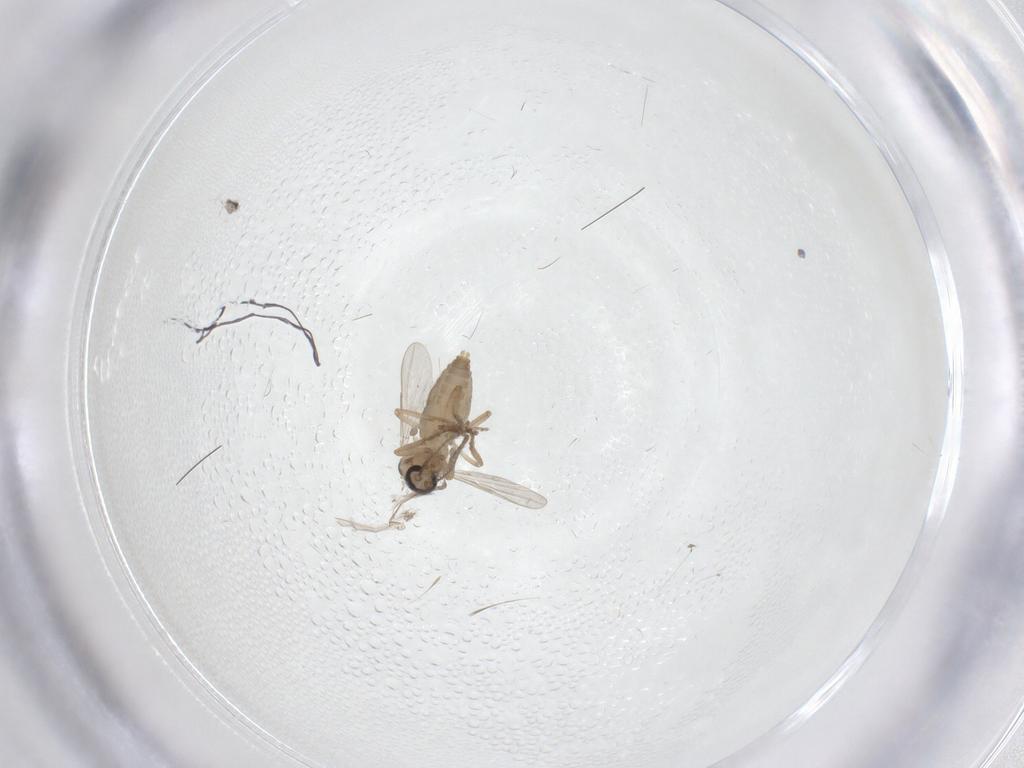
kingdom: Animalia
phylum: Arthropoda
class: Insecta
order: Diptera
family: Ceratopogonidae
